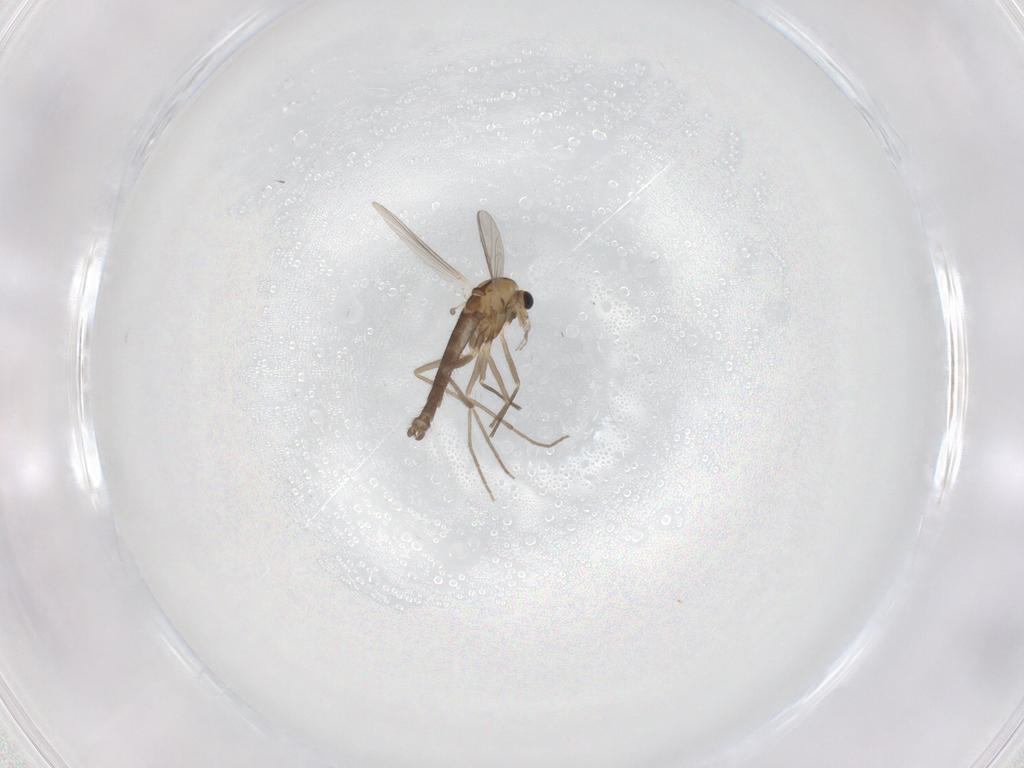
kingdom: Animalia
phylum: Arthropoda
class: Insecta
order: Diptera
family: Chironomidae
